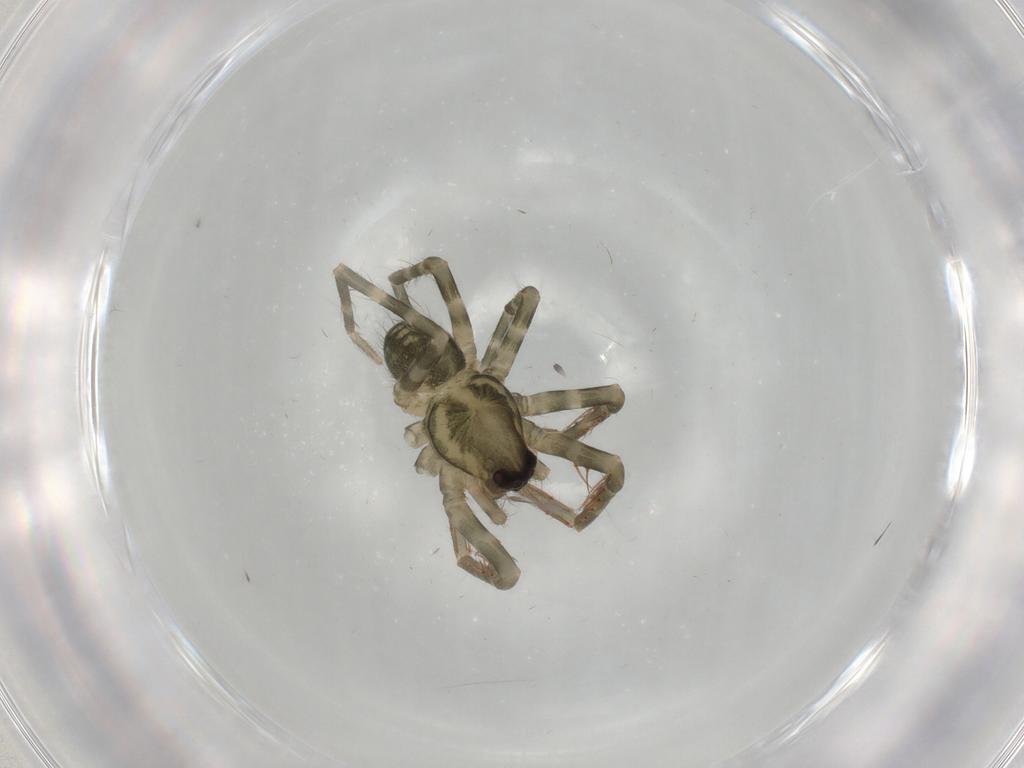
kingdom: Animalia
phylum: Arthropoda
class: Arachnida
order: Araneae
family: Ctenidae
